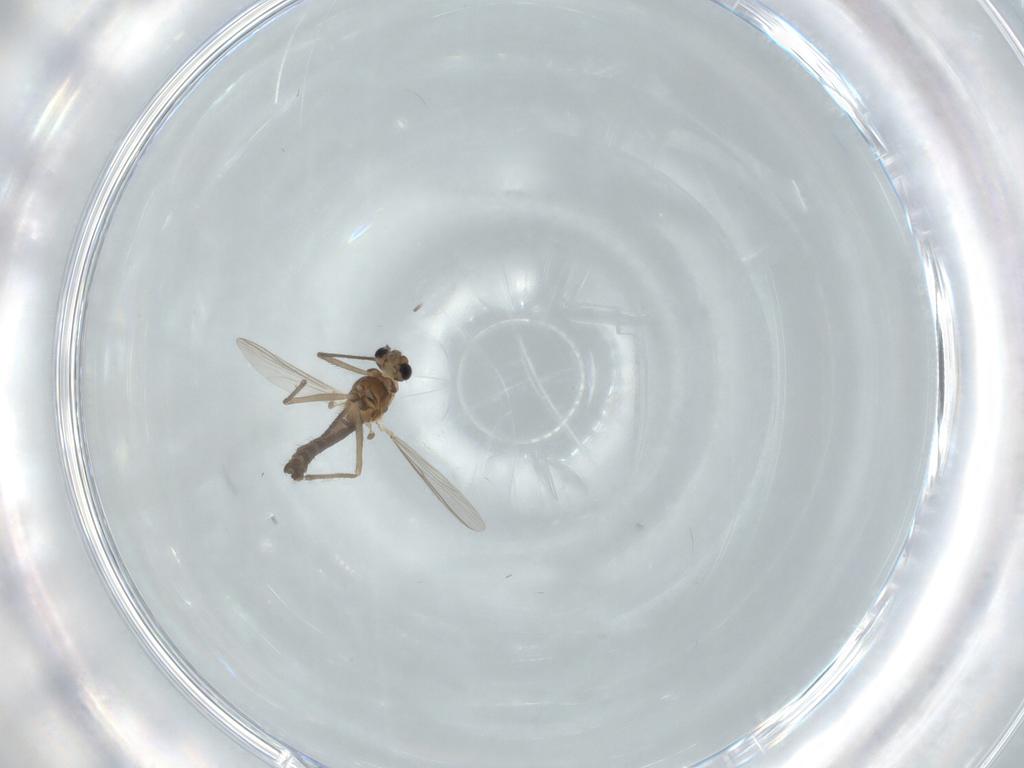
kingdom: Animalia
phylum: Arthropoda
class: Insecta
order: Diptera
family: Chironomidae
